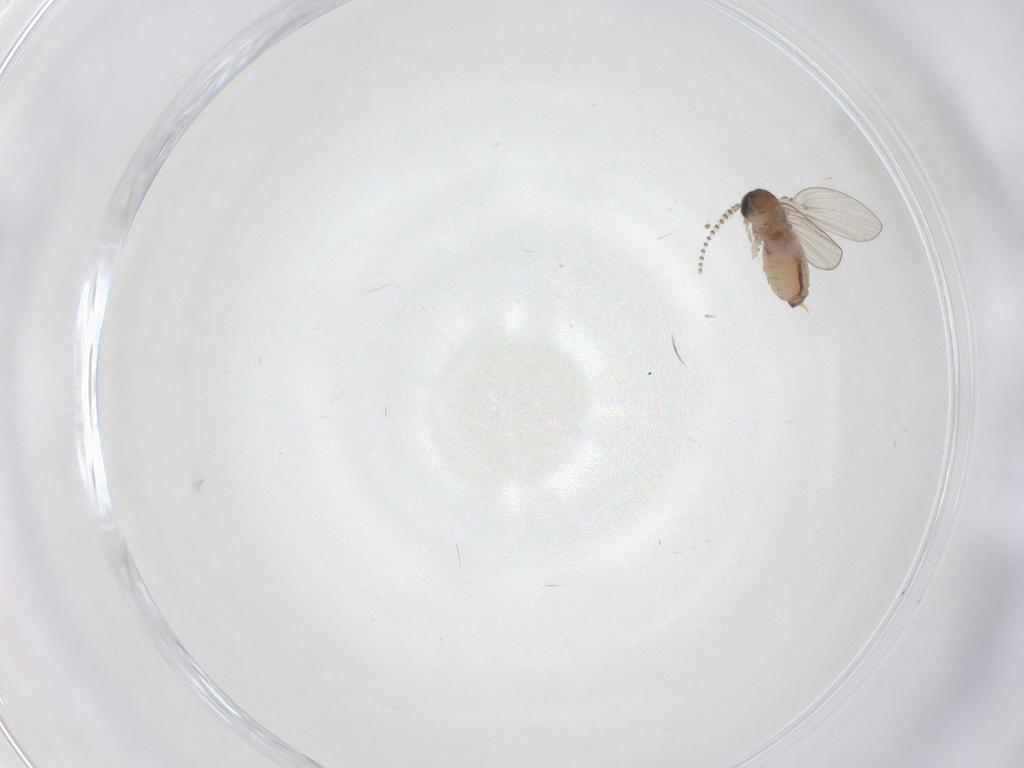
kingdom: Animalia
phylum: Arthropoda
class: Insecta
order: Diptera
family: Psychodidae
